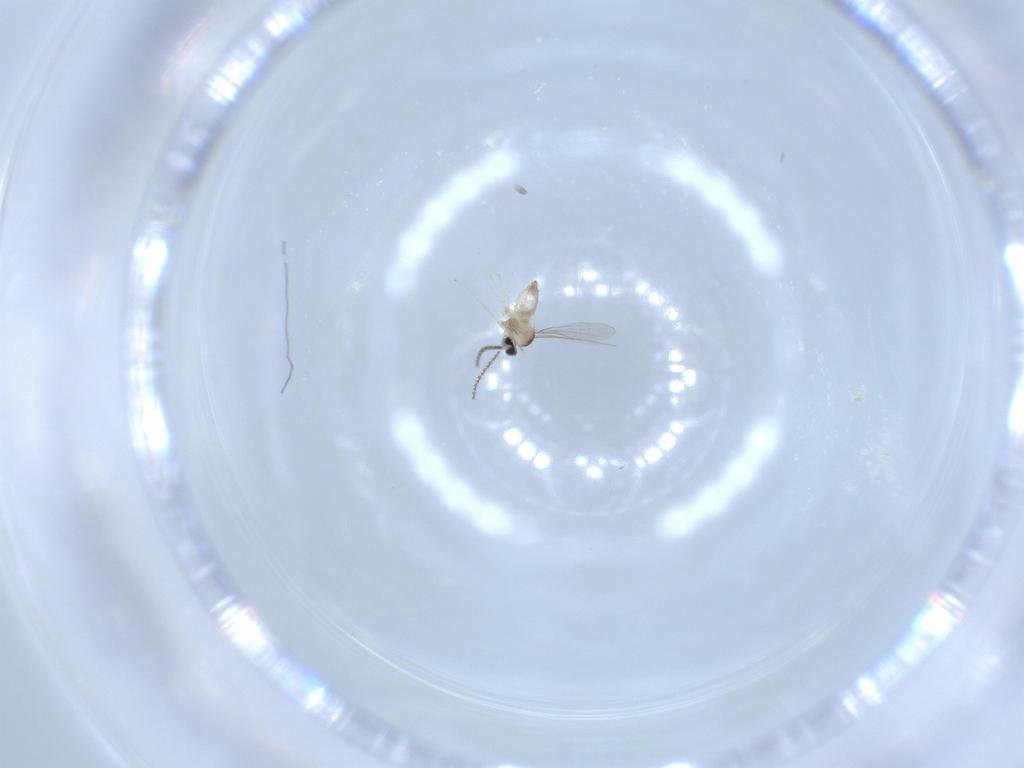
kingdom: Animalia
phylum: Arthropoda
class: Insecta
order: Diptera
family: Cecidomyiidae
